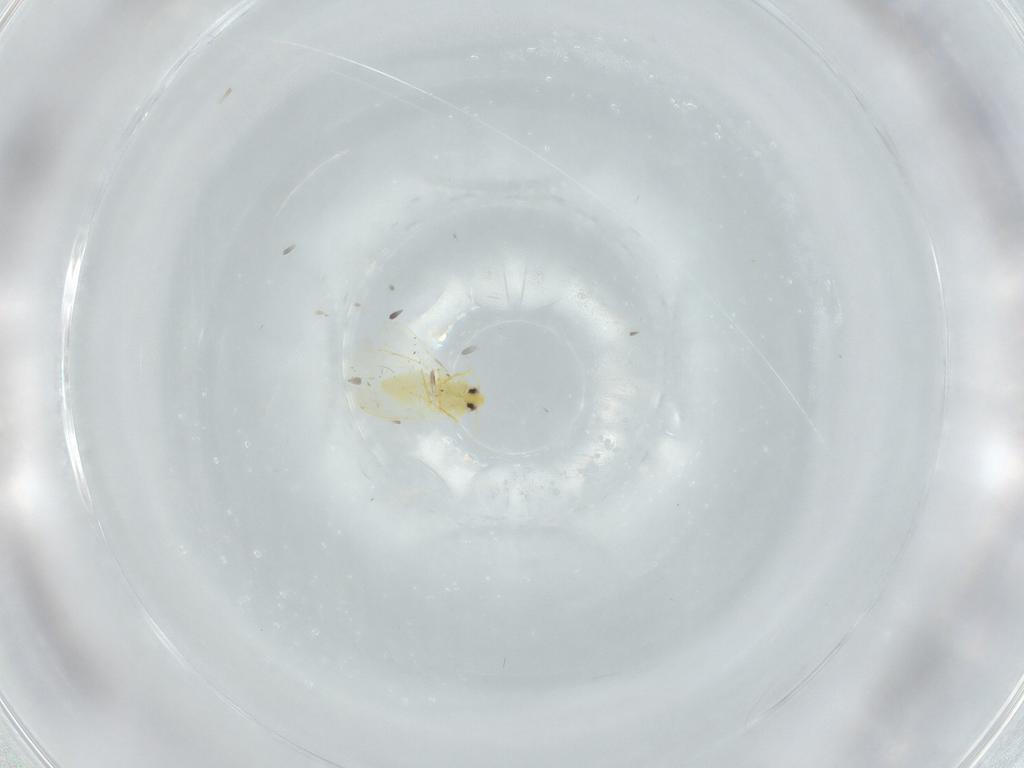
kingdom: Animalia
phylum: Arthropoda
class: Insecta
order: Hemiptera
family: Aleyrodidae
